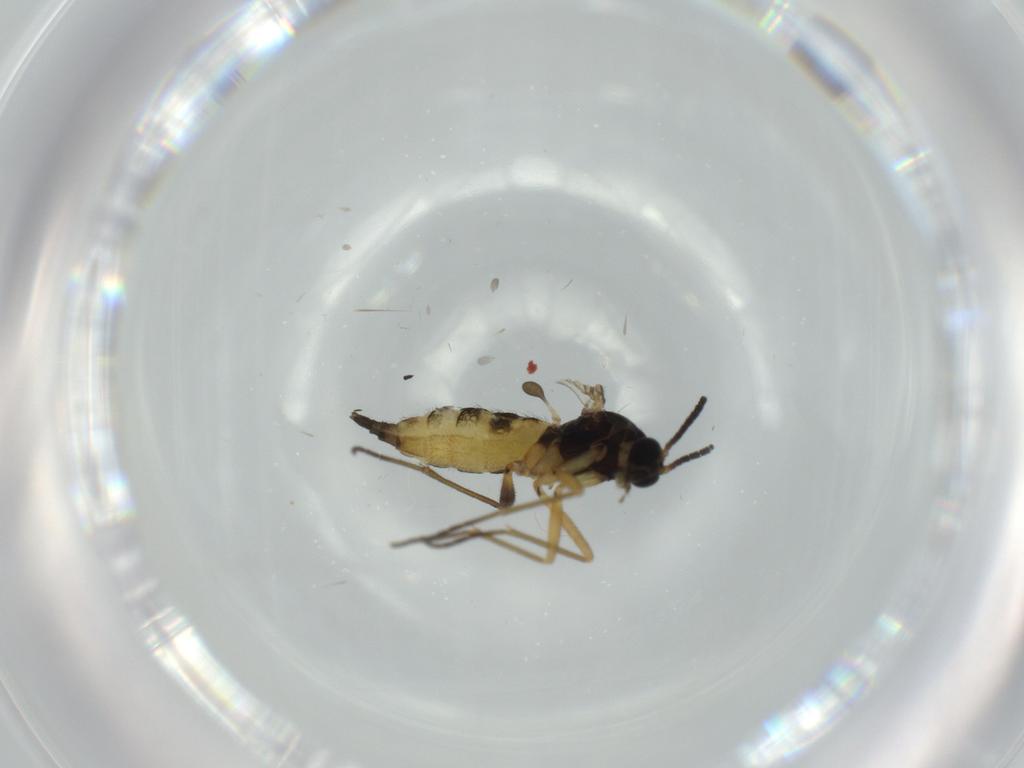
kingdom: Animalia
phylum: Arthropoda
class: Insecta
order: Diptera
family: Sciaridae
